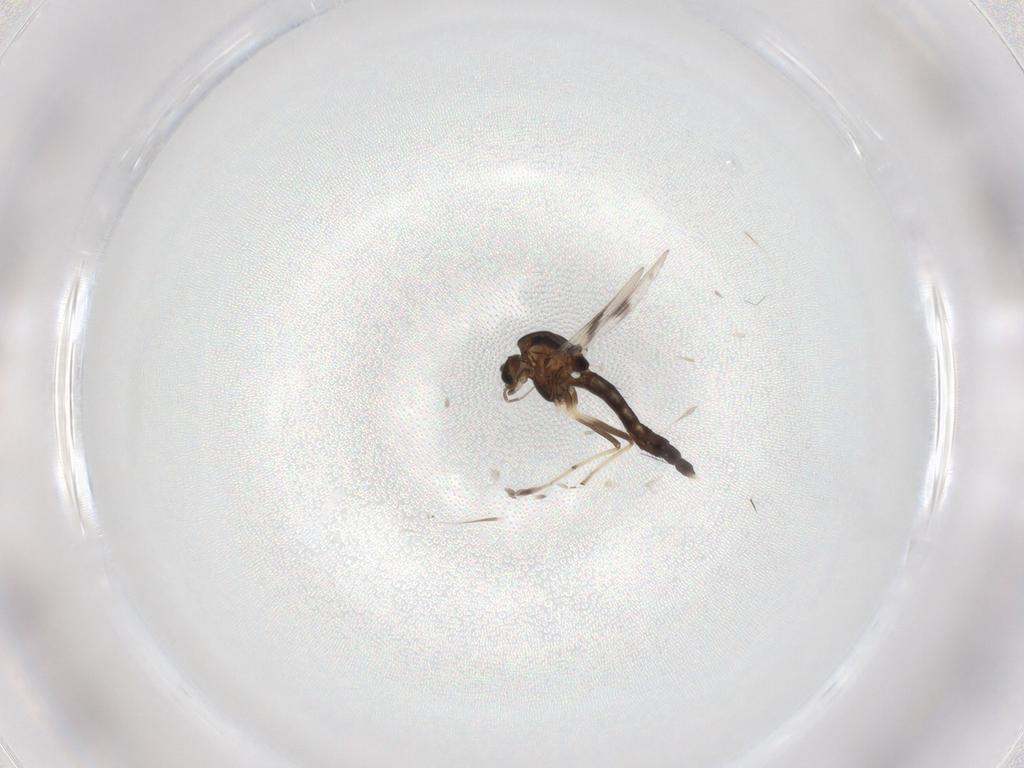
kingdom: Animalia
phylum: Arthropoda
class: Insecta
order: Diptera
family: Chironomidae
